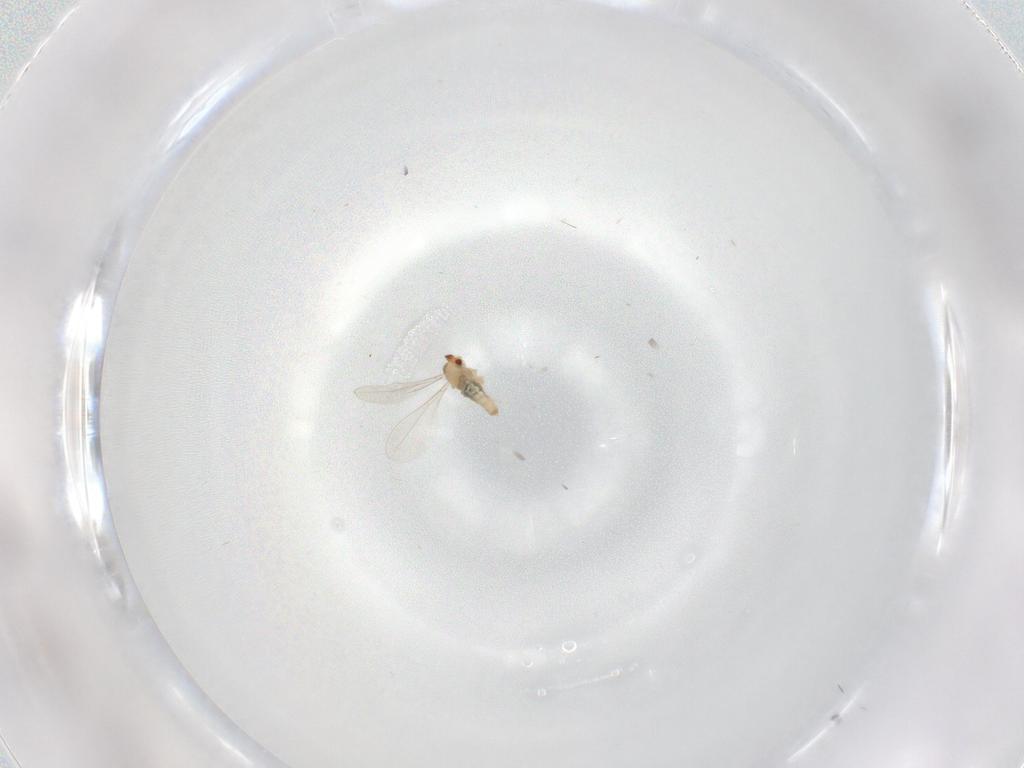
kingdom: Animalia
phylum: Arthropoda
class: Insecta
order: Diptera
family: Cecidomyiidae
